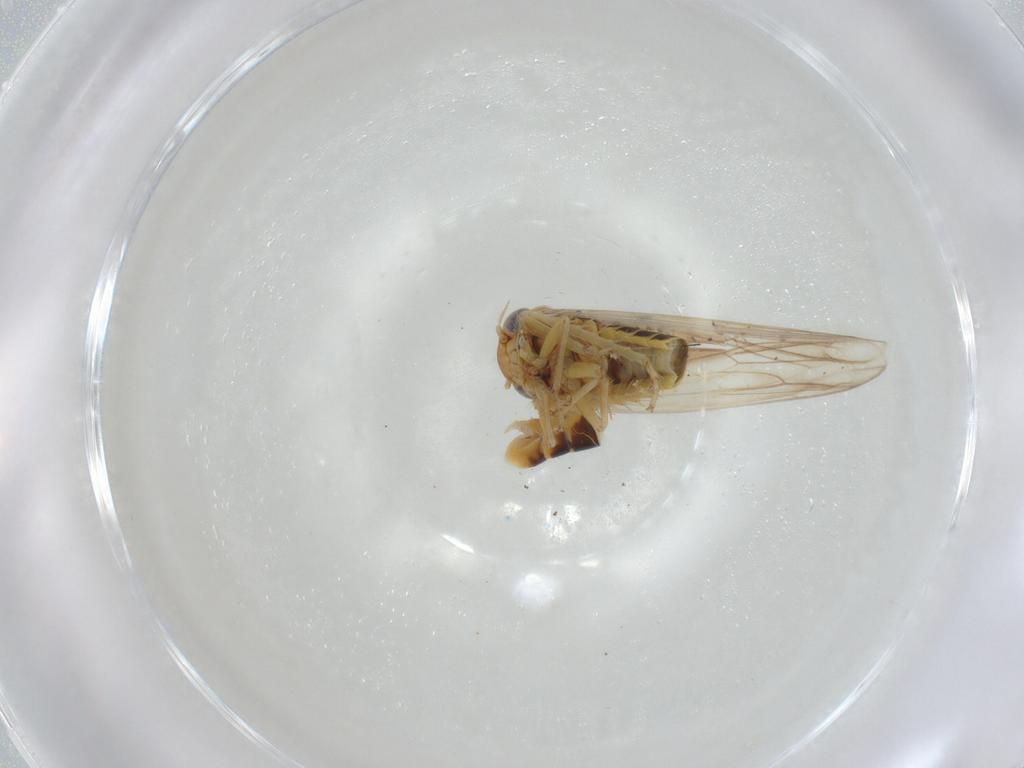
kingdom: Animalia
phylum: Arthropoda
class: Insecta
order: Hemiptera
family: Cicadellidae
